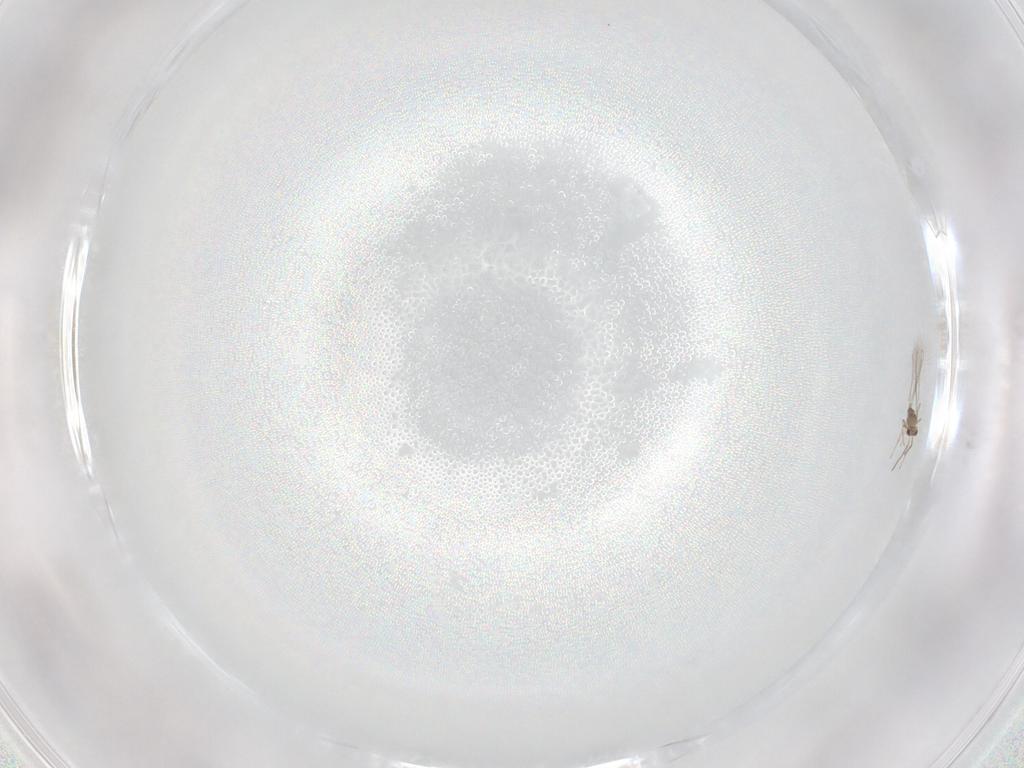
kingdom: Animalia
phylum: Arthropoda
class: Insecta
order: Hymenoptera
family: Mymaridae
